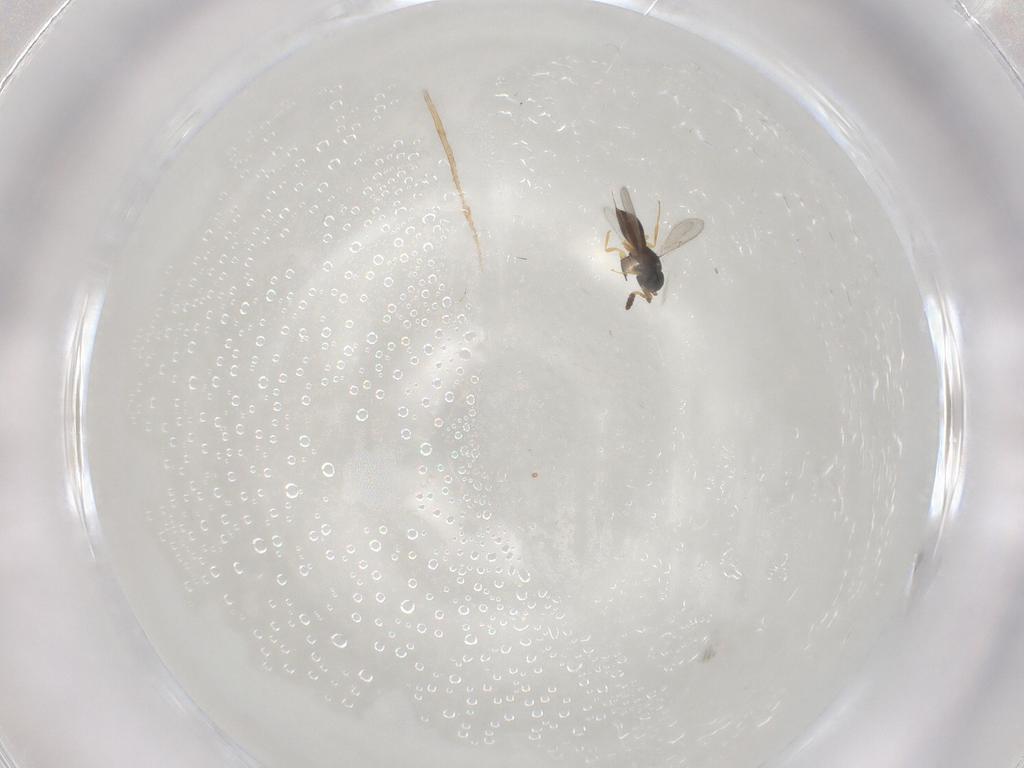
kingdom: Animalia
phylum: Arthropoda
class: Insecta
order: Hymenoptera
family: Scelionidae
